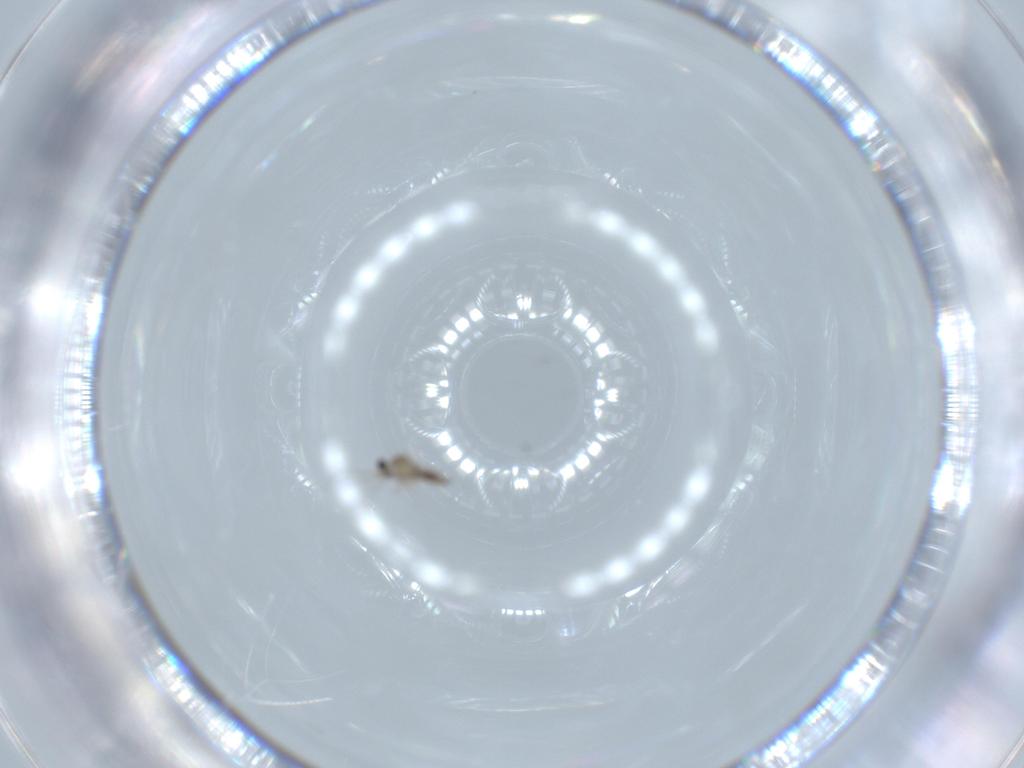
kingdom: Animalia
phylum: Arthropoda
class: Insecta
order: Diptera
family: Cecidomyiidae
